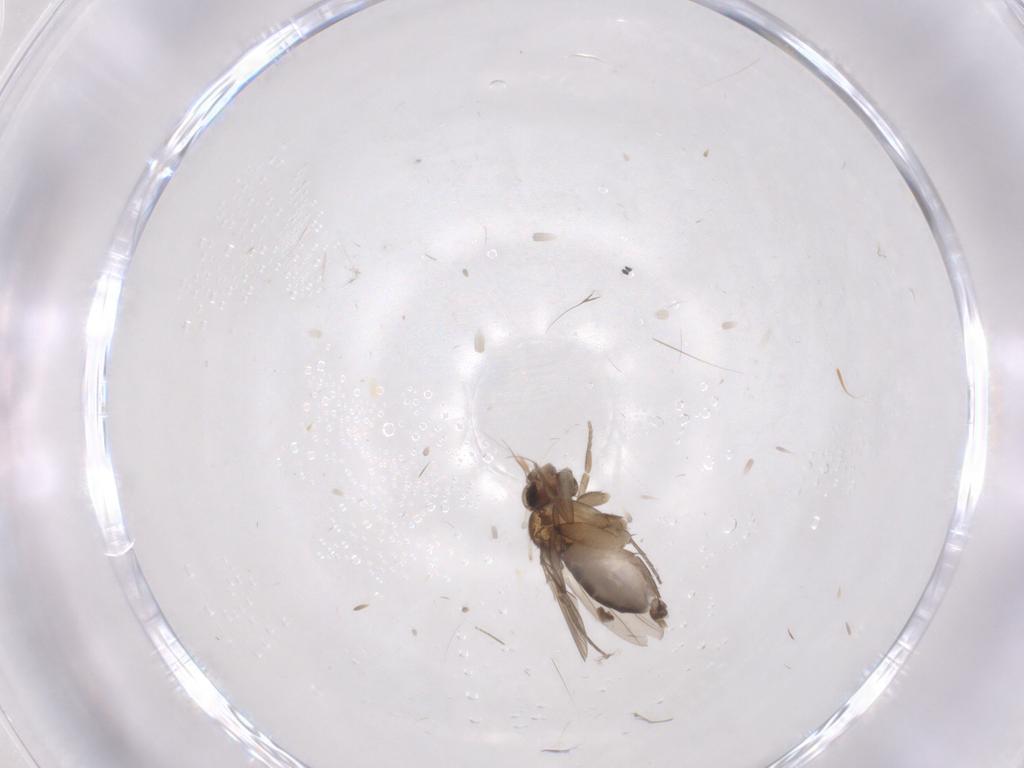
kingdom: Animalia
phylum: Arthropoda
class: Insecta
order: Diptera
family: Phoridae
